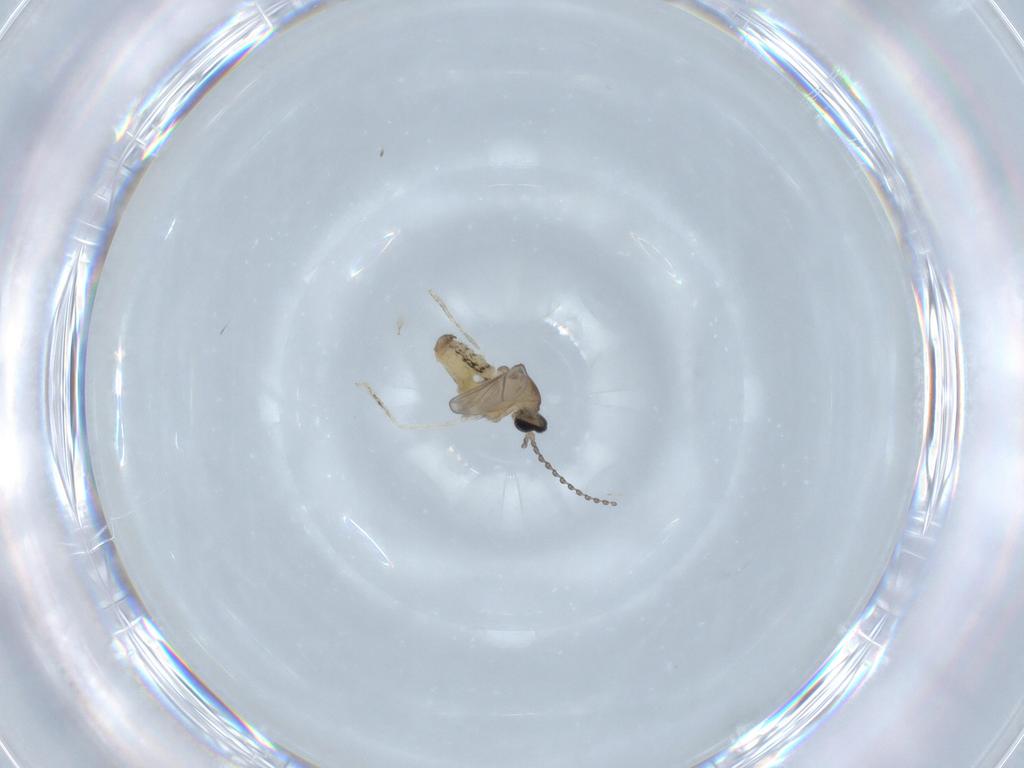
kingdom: Animalia
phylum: Arthropoda
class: Insecta
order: Diptera
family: Cecidomyiidae
